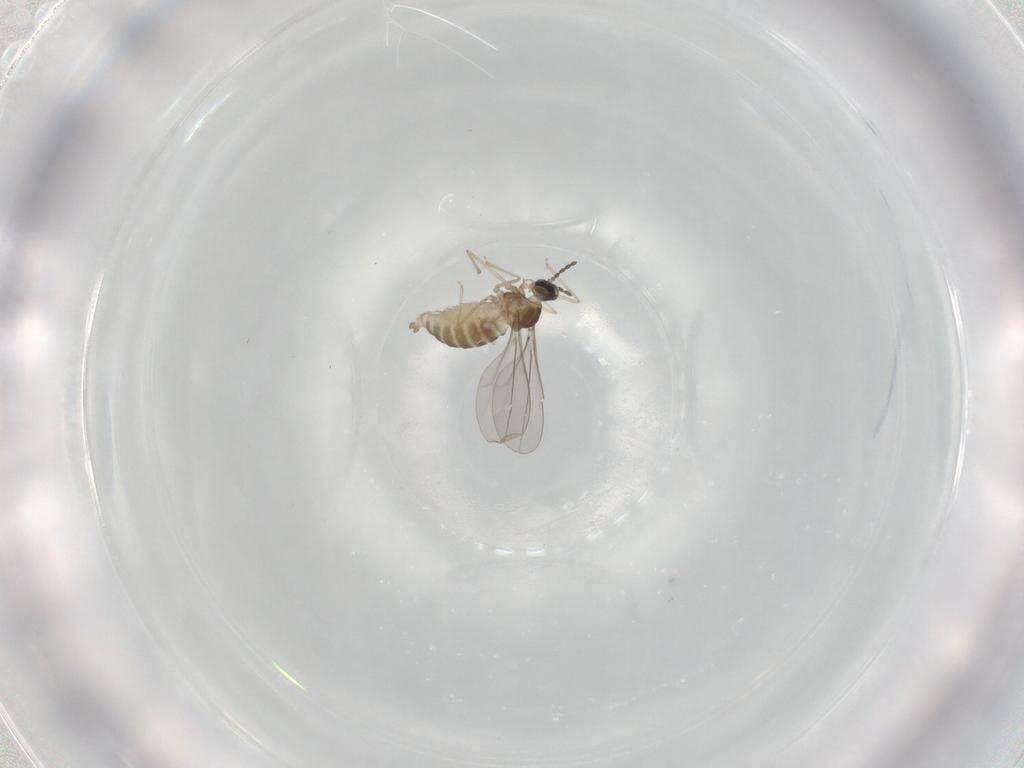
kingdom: Animalia
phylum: Arthropoda
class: Insecta
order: Diptera
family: Cecidomyiidae
